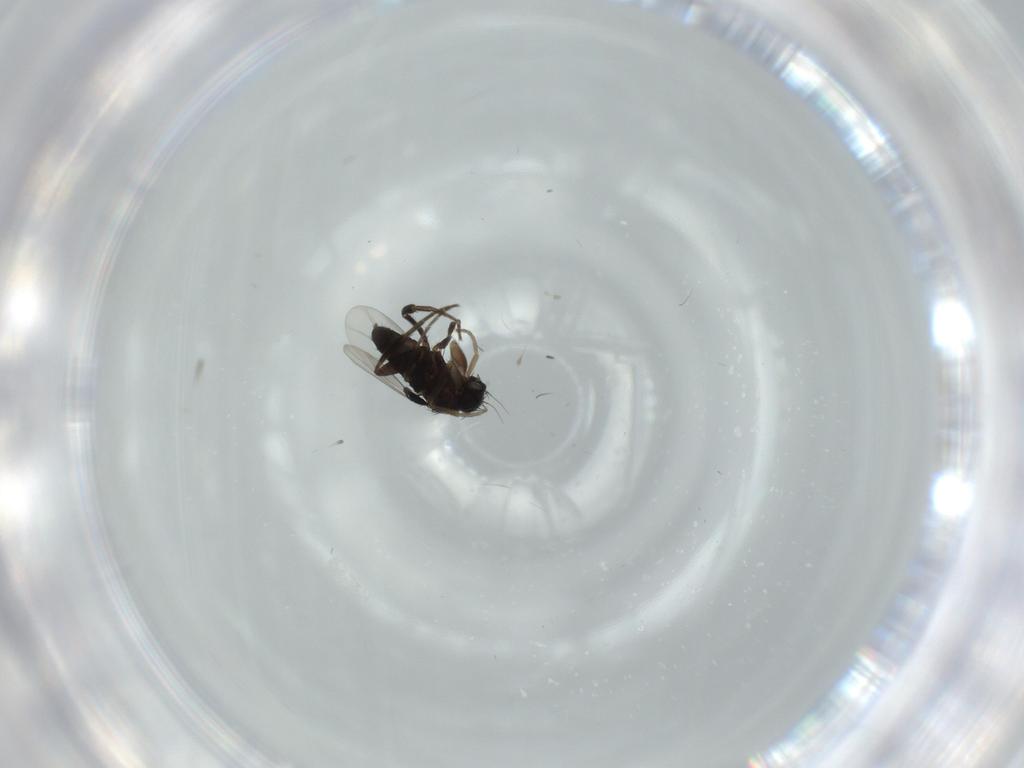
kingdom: Animalia
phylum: Arthropoda
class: Insecta
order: Diptera
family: Phoridae
